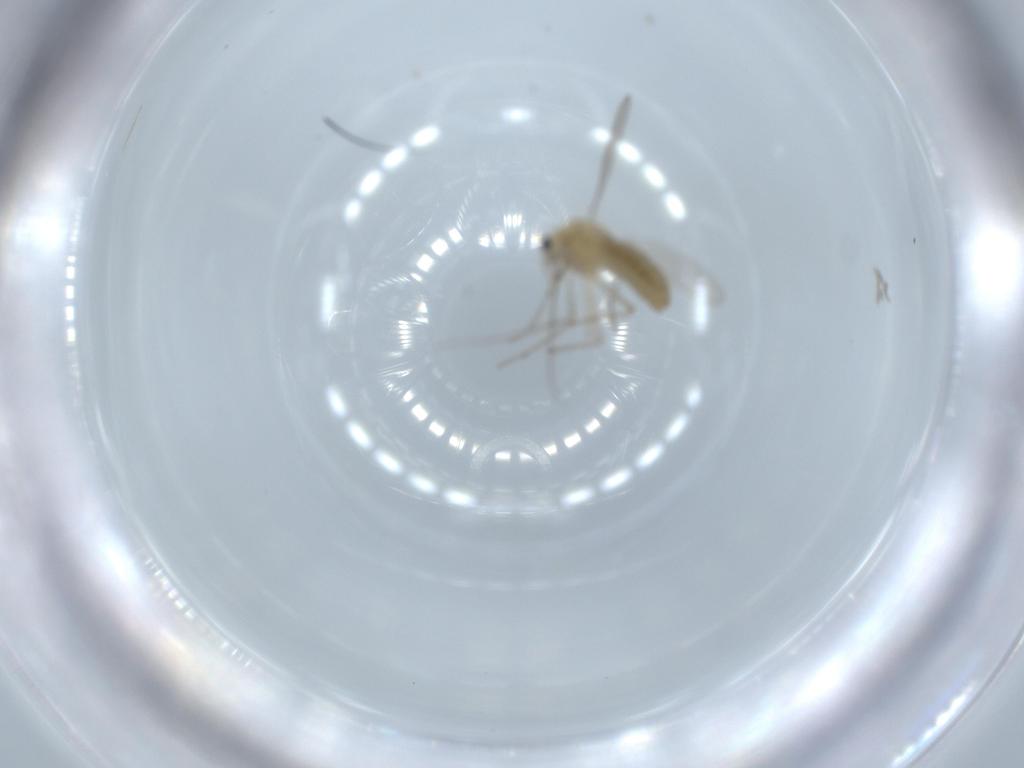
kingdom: Animalia
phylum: Arthropoda
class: Insecta
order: Diptera
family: Chironomidae
